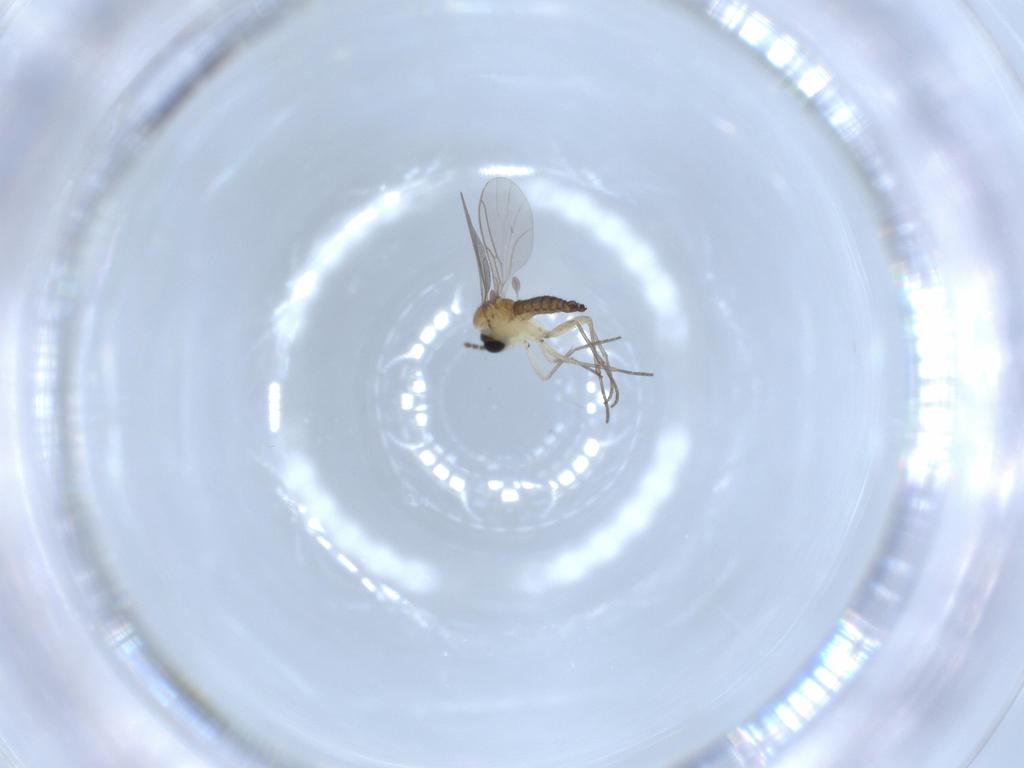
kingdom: Animalia
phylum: Arthropoda
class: Insecta
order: Diptera
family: Sciaridae
